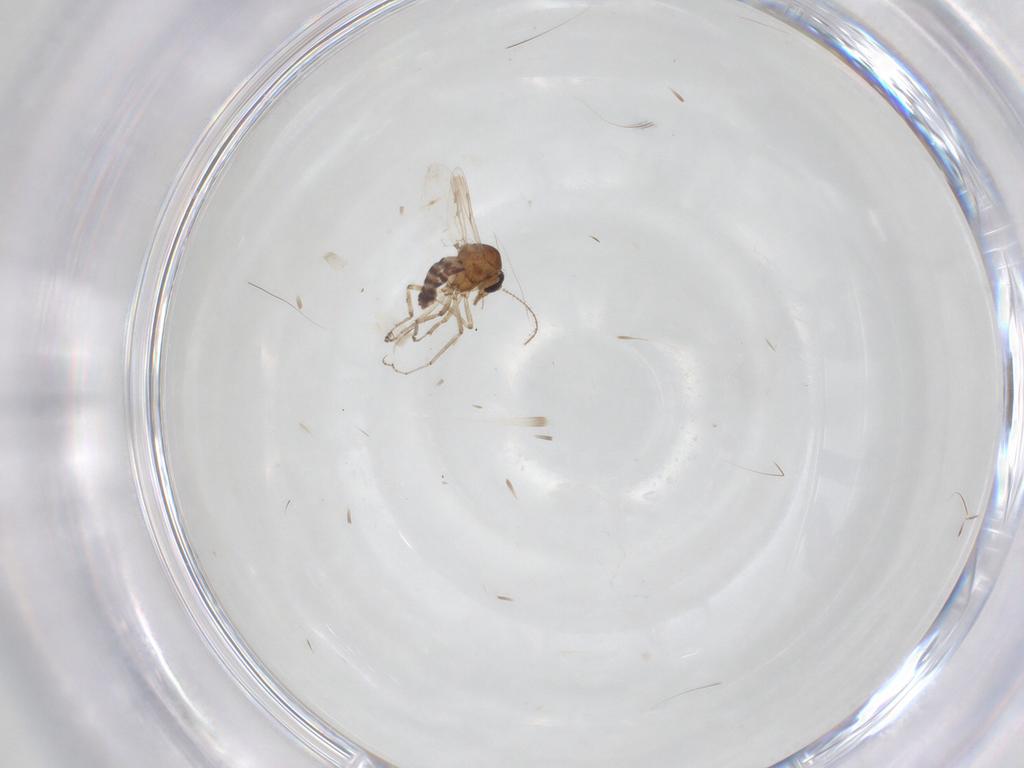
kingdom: Animalia
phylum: Arthropoda
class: Insecta
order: Diptera
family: Ceratopogonidae
